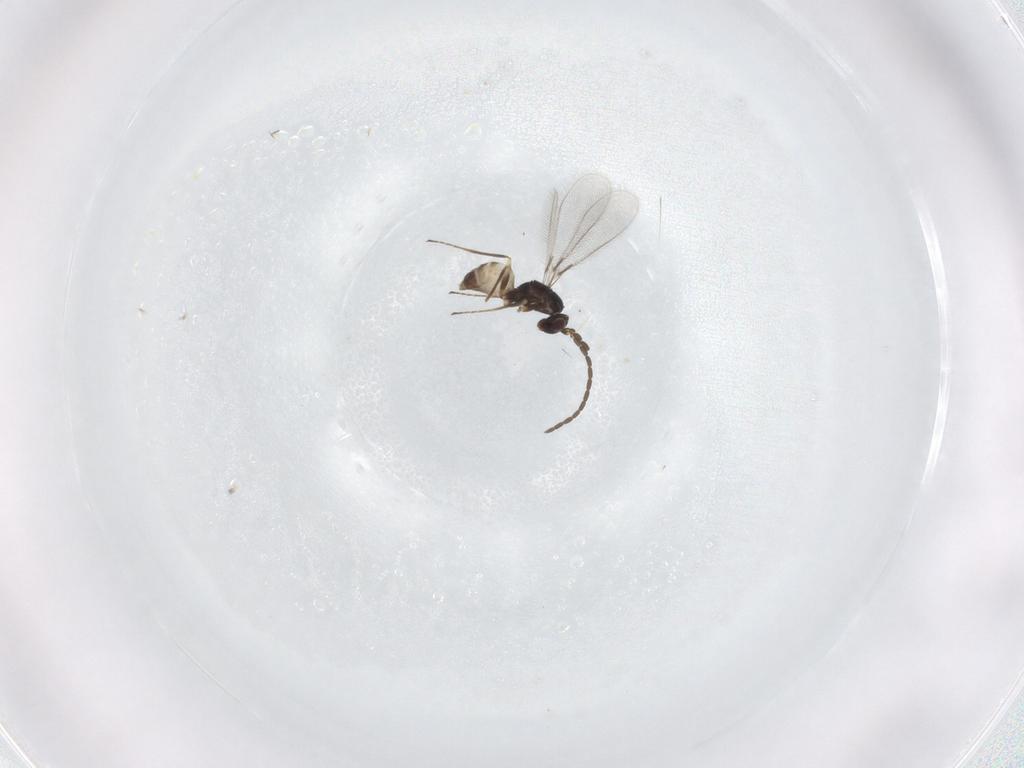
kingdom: Animalia
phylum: Arthropoda
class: Insecta
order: Hymenoptera
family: Mymaridae
